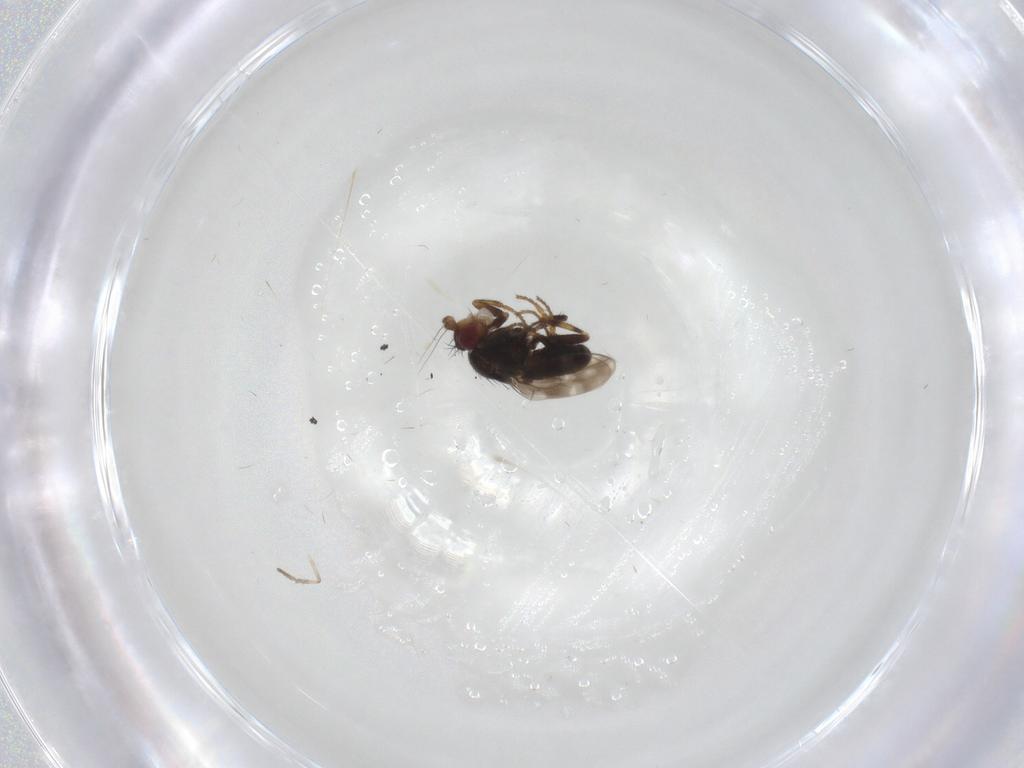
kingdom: Animalia
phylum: Arthropoda
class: Insecta
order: Diptera
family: Sphaeroceridae
